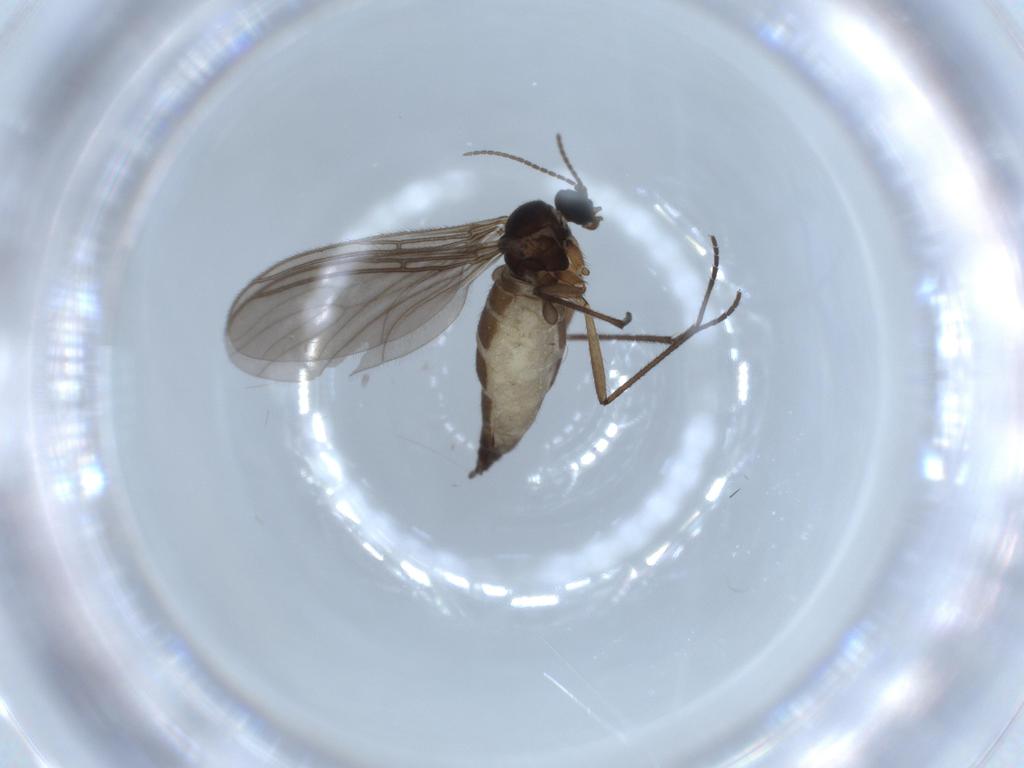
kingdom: Animalia
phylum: Arthropoda
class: Insecta
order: Diptera
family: Sciaridae
